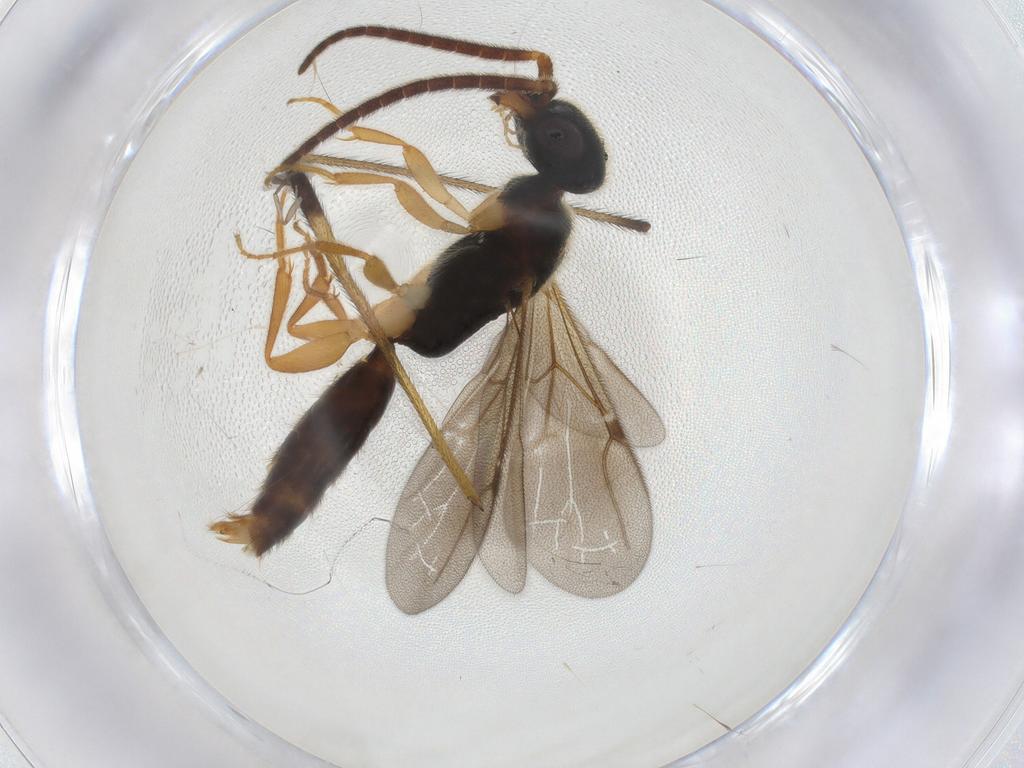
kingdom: Animalia
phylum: Arthropoda
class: Insecta
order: Hymenoptera
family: Bethylidae
